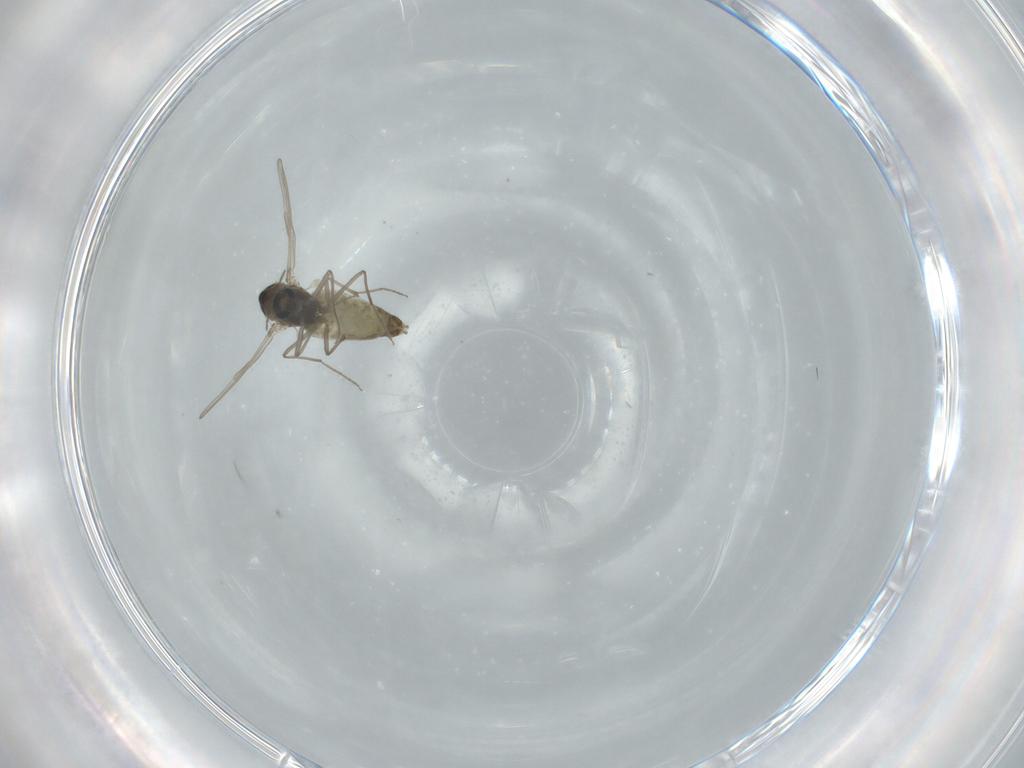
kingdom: Animalia
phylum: Arthropoda
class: Insecta
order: Diptera
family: Chironomidae
